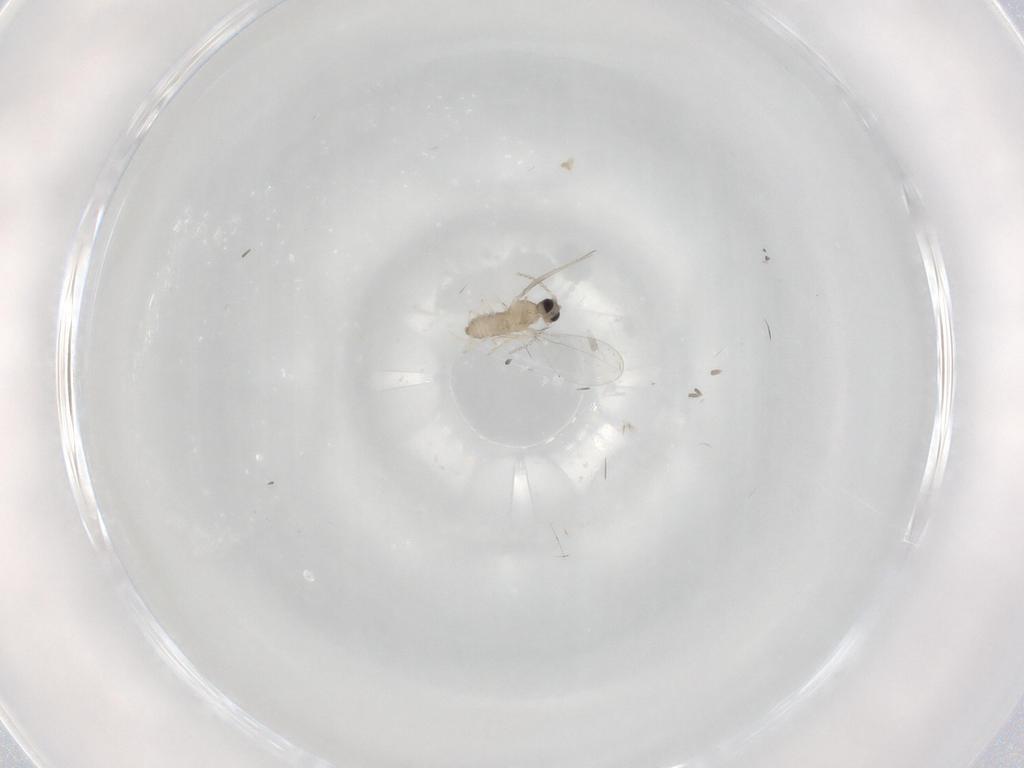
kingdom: Animalia
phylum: Arthropoda
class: Insecta
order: Diptera
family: Cecidomyiidae
